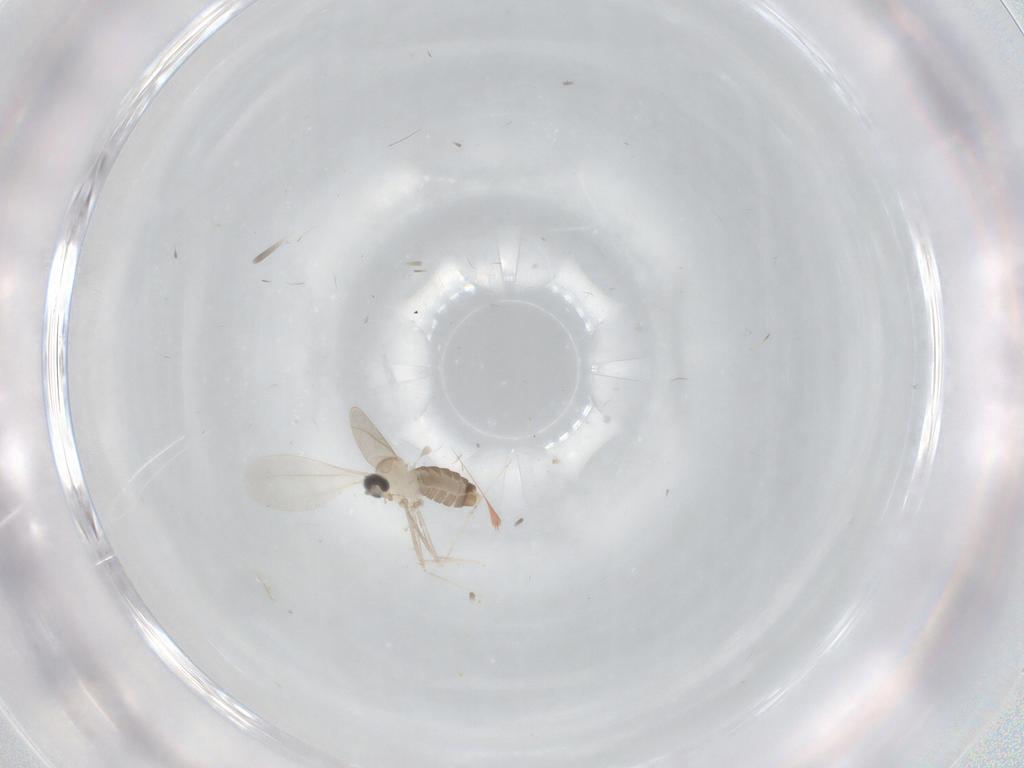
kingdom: Animalia
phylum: Arthropoda
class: Insecta
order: Diptera
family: Cecidomyiidae
